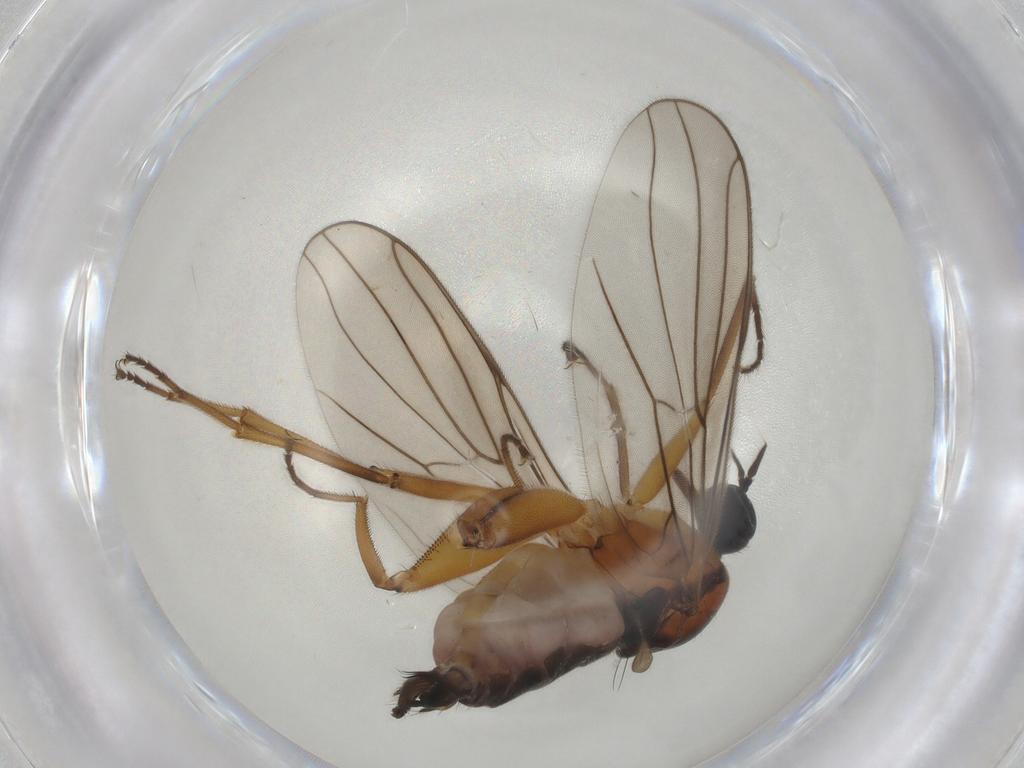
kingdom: Animalia
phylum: Arthropoda
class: Insecta
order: Diptera
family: Hybotidae
